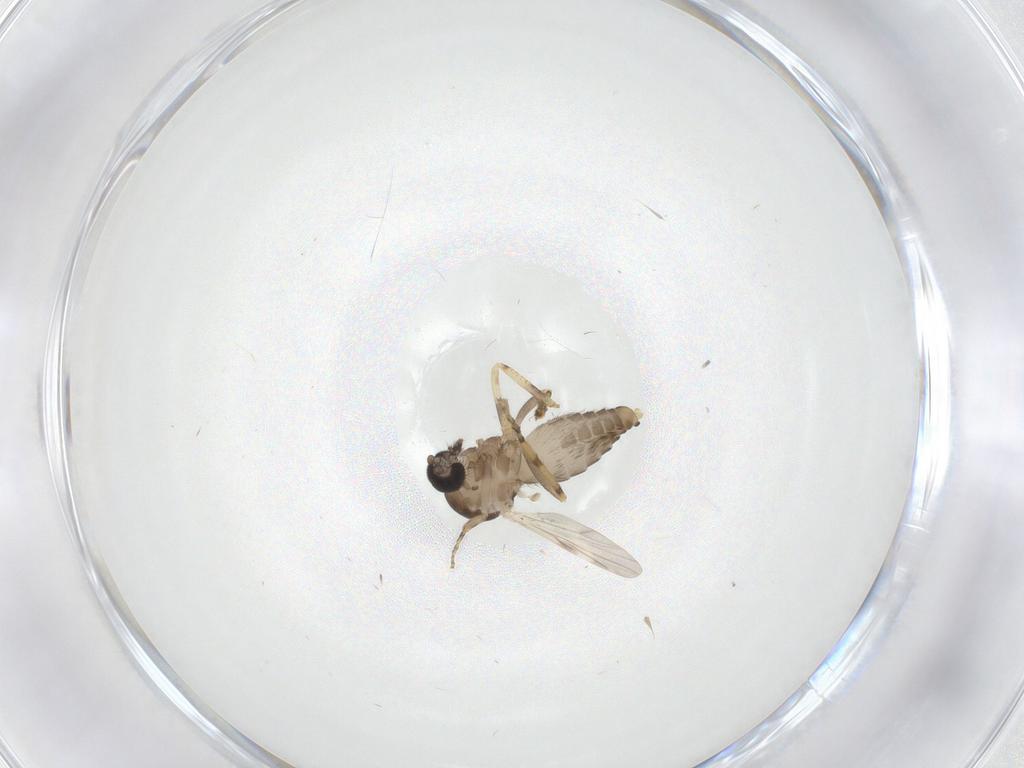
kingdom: Animalia
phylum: Arthropoda
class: Insecta
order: Diptera
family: Ceratopogonidae
